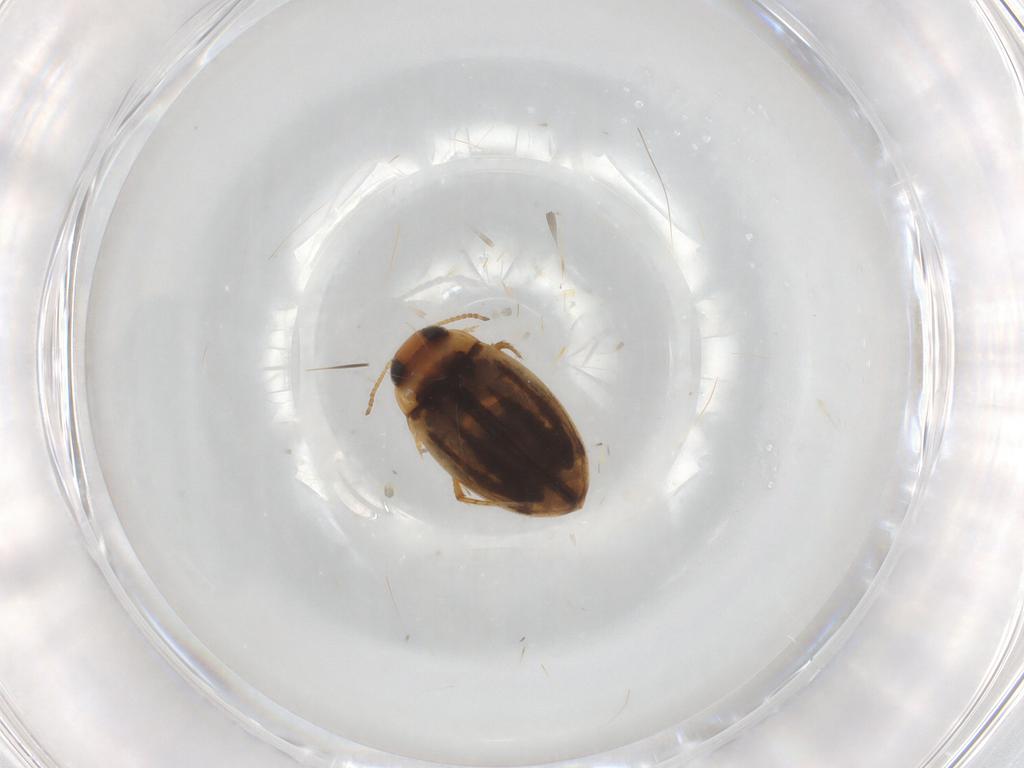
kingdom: Animalia
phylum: Arthropoda
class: Insecta
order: Coleoptera
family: Dytiscidae
